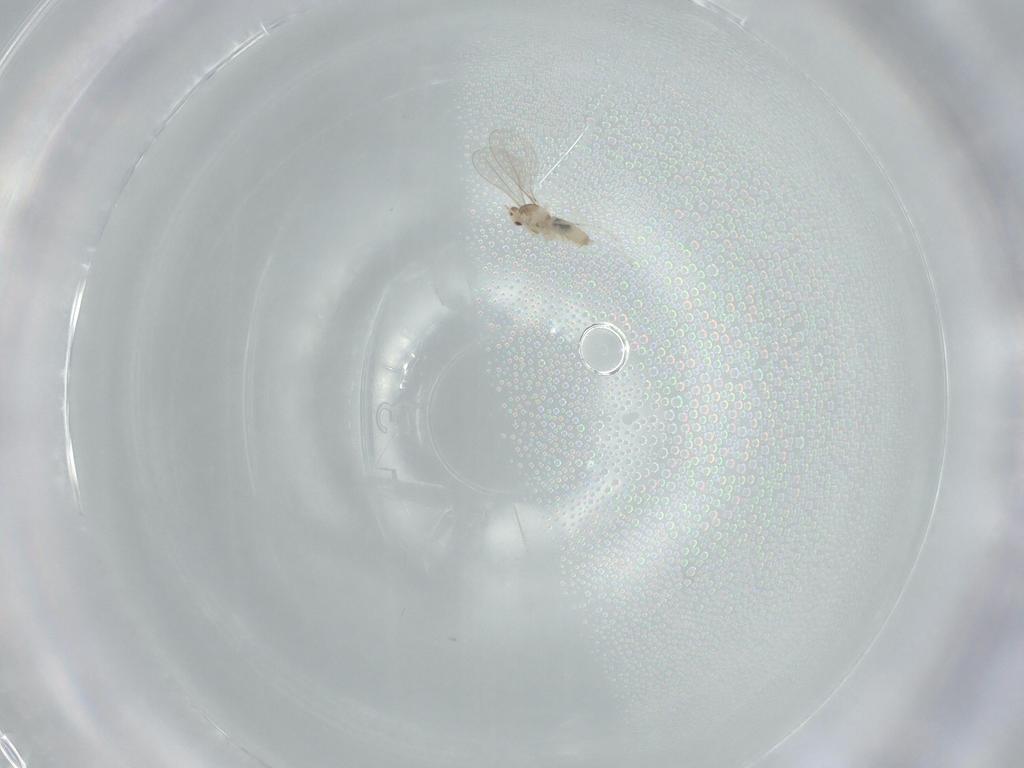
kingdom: Animalia
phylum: Arthropoda
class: Insecta
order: Diptera
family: Cecidomyiidae
